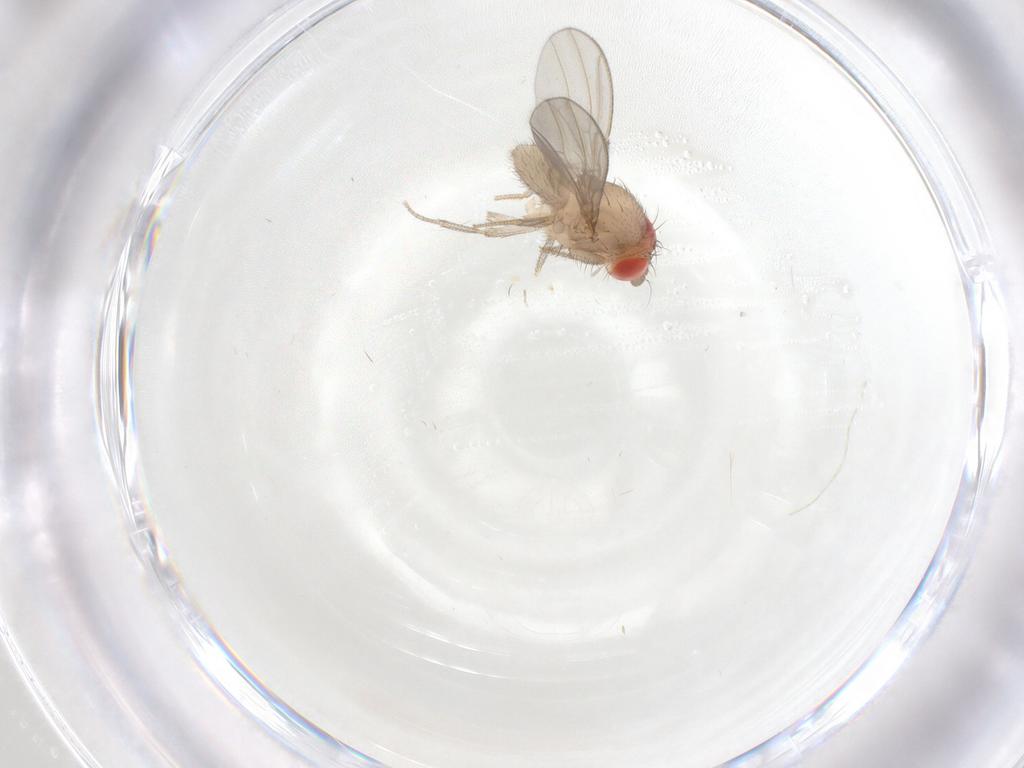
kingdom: Animalia
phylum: Arthropoda
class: Insecta
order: Diptera
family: Drosophilidae
